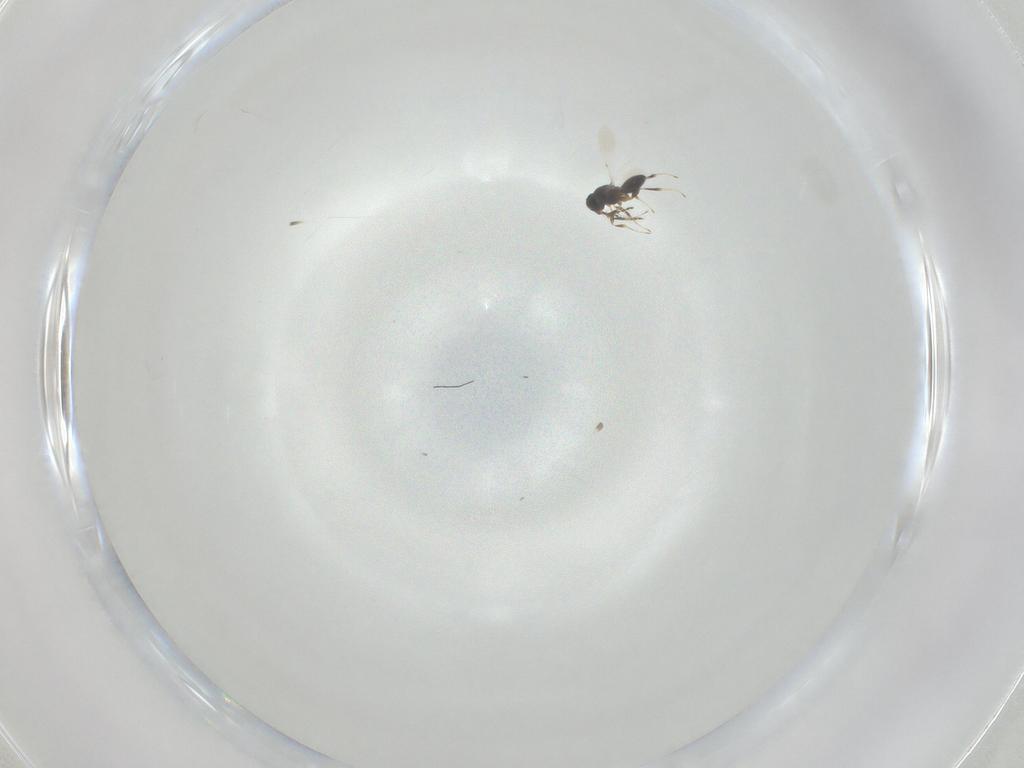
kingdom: Animalia
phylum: Arthropoda
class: Insecta
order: Hymenoptera
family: Platygastridae
